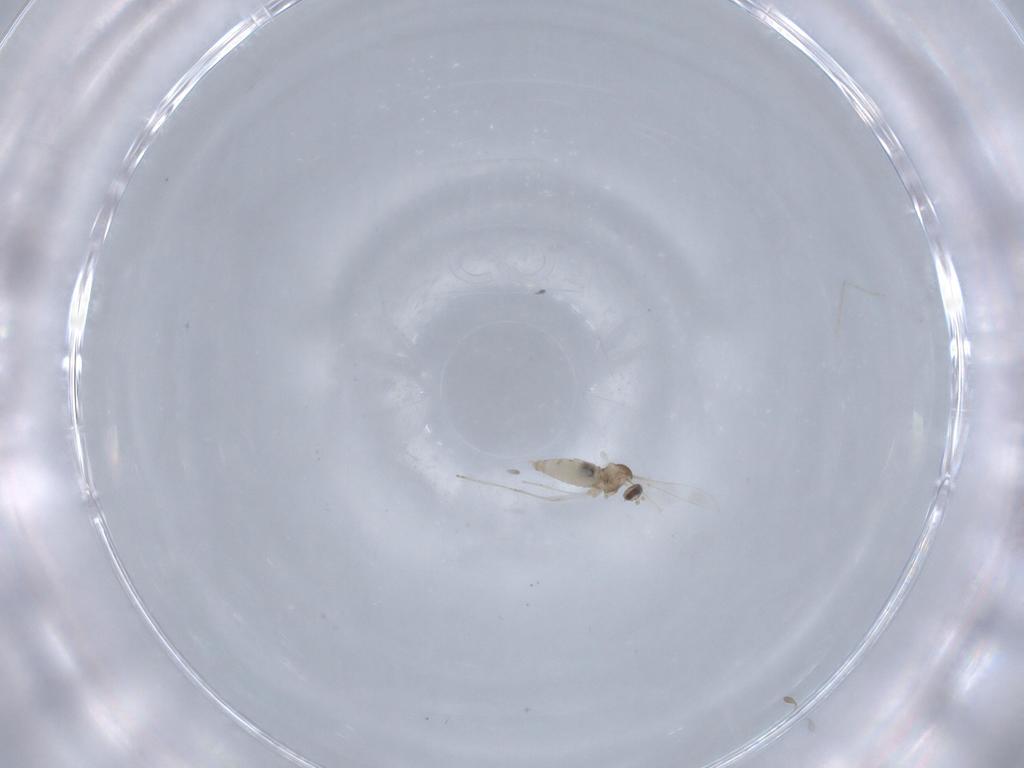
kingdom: Animalia
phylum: Arthropoda
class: Insecta
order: Diptera
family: Cecidomyiidae
